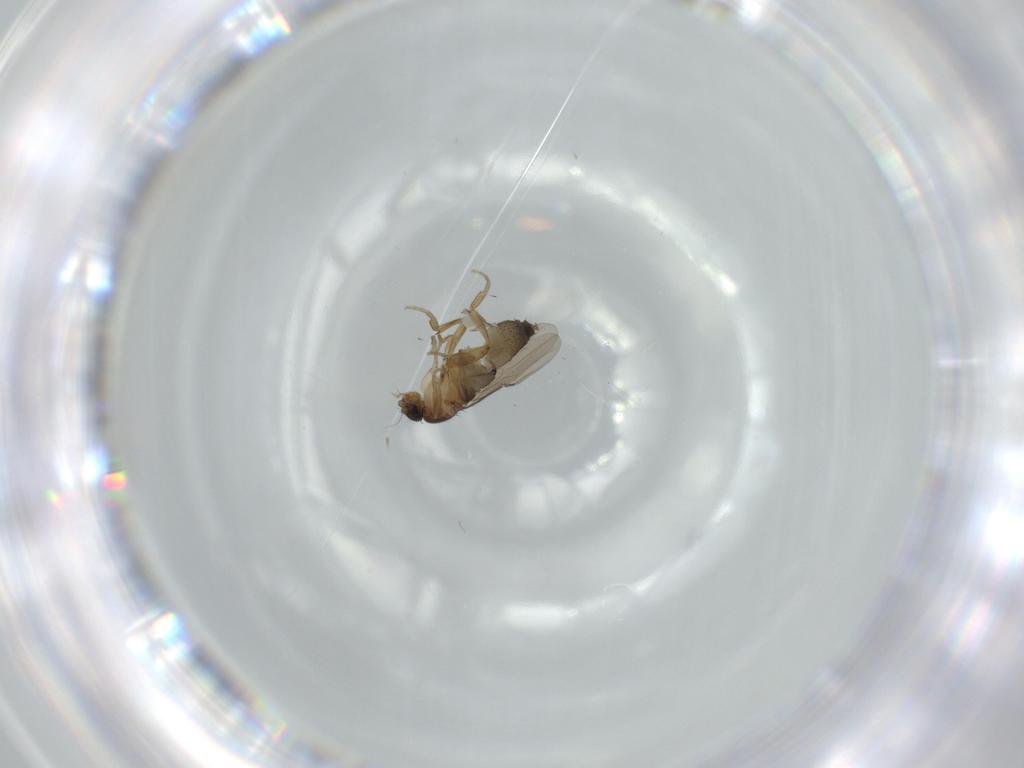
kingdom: Animalia
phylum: Arthropoda
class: Insecta
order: Diptera
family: Phoridae
